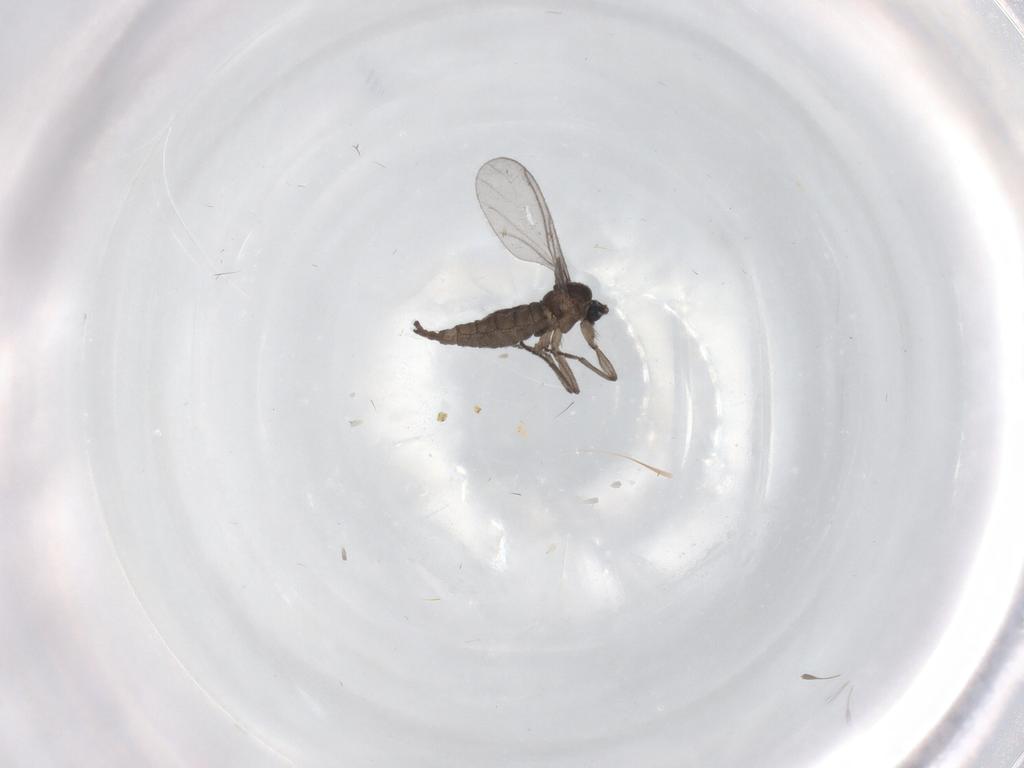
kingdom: Animalia
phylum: Arthropoda
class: Insecta
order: Diptera
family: Sciaridae
